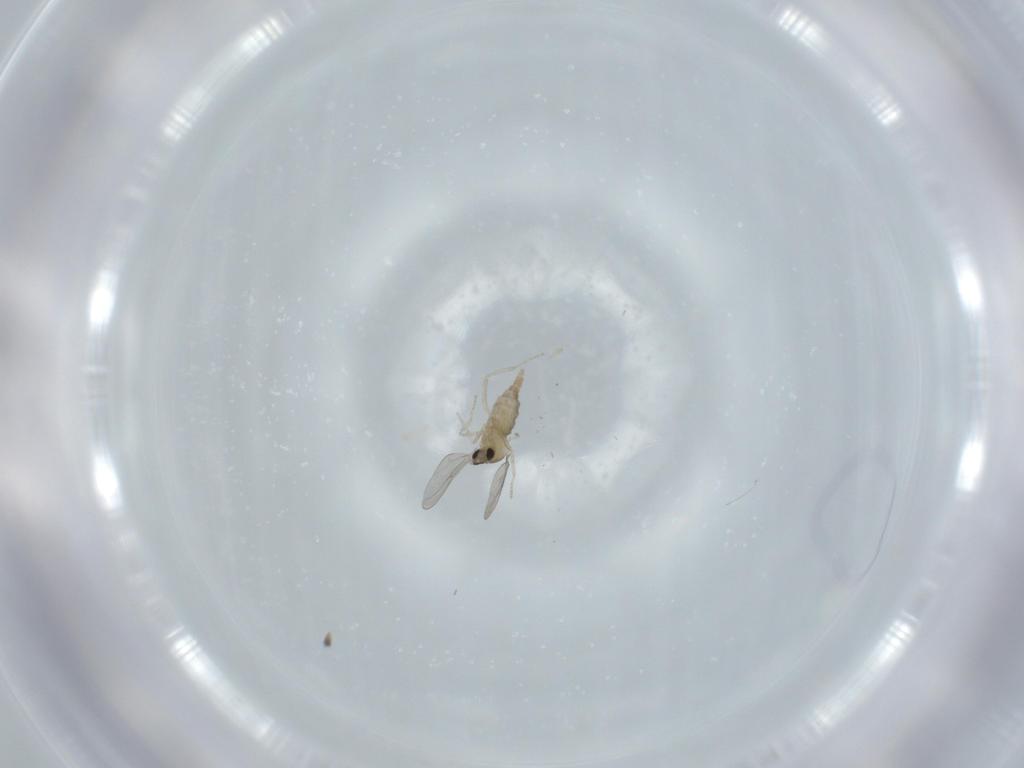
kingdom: Animalia
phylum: Arthropoda
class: Insecta
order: Diptera
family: Cecidomyiidae
